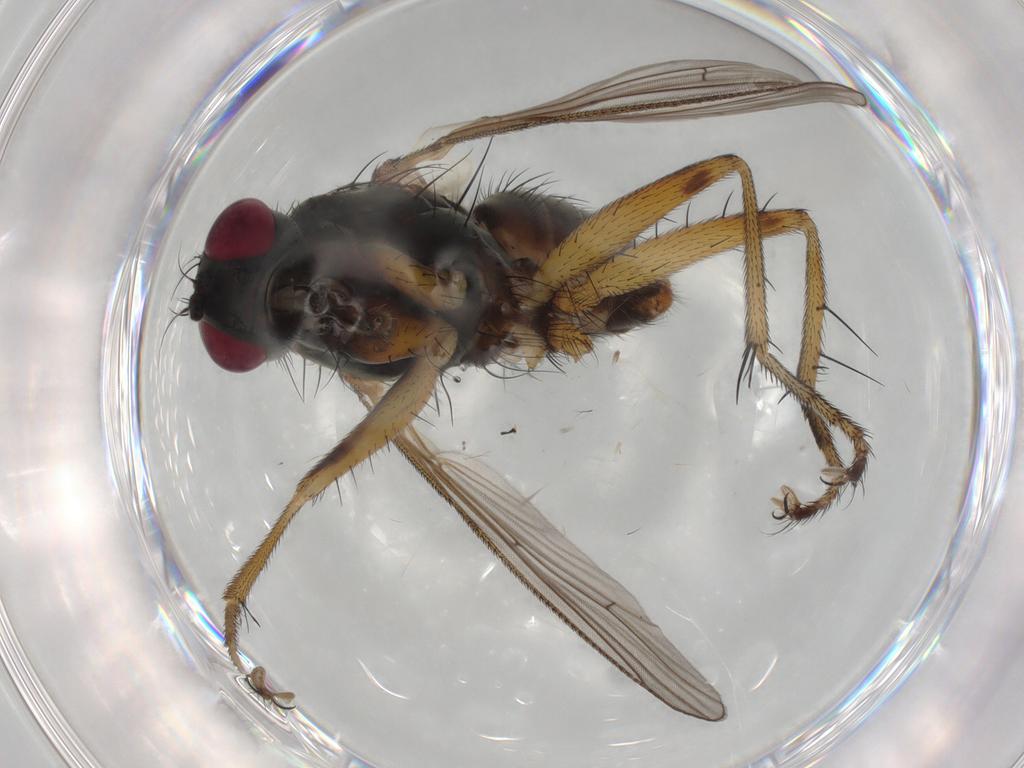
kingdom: Animalia
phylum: Arthropoda
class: Insecta
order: Diptera
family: Muscidae
